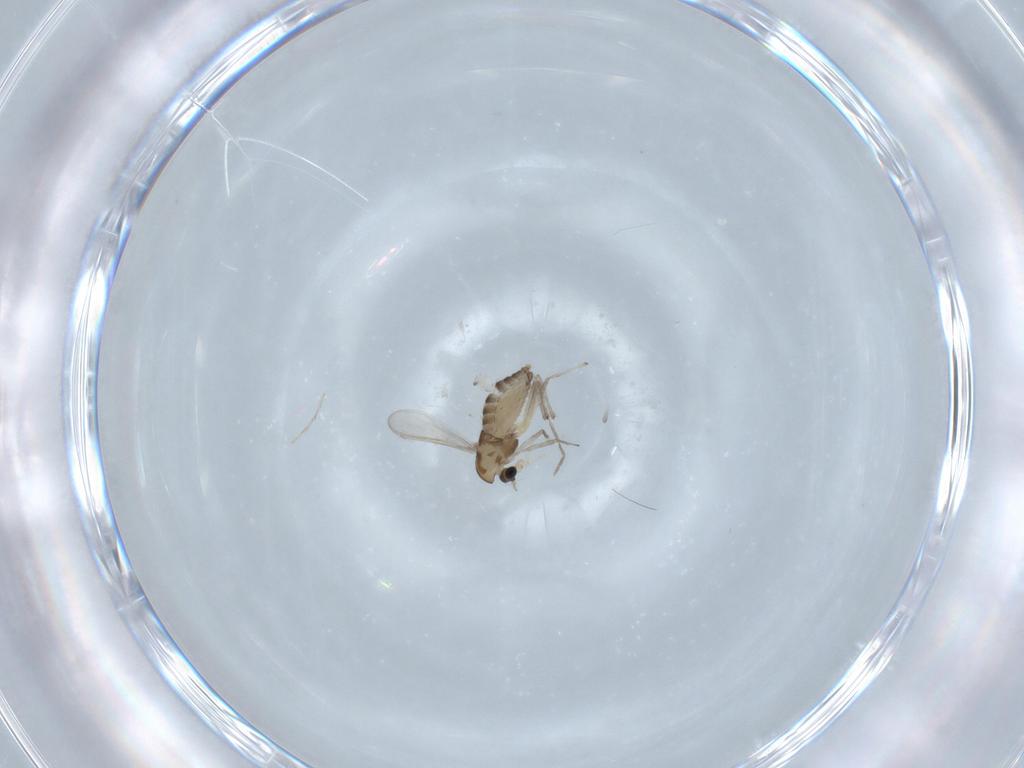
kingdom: Animalia
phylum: Arthropoda
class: Insecta
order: Diptera
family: Chironomidae
